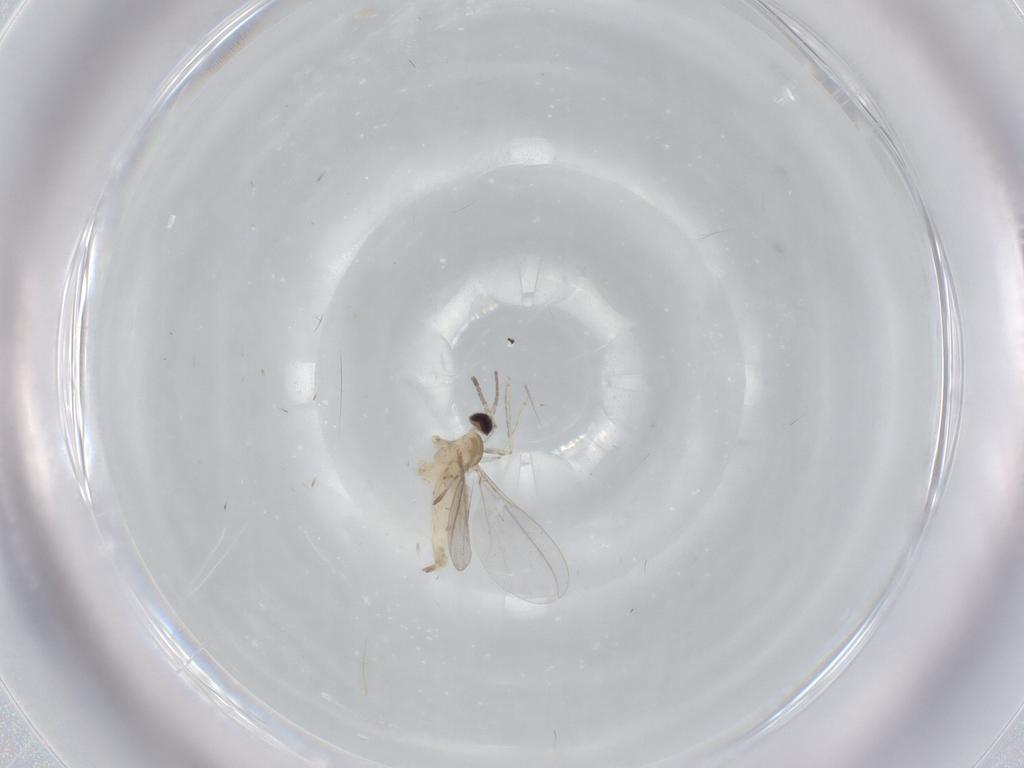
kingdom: Animalia
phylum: Arthropoda
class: Insecta
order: Diptera
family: Cecidomyiidae
